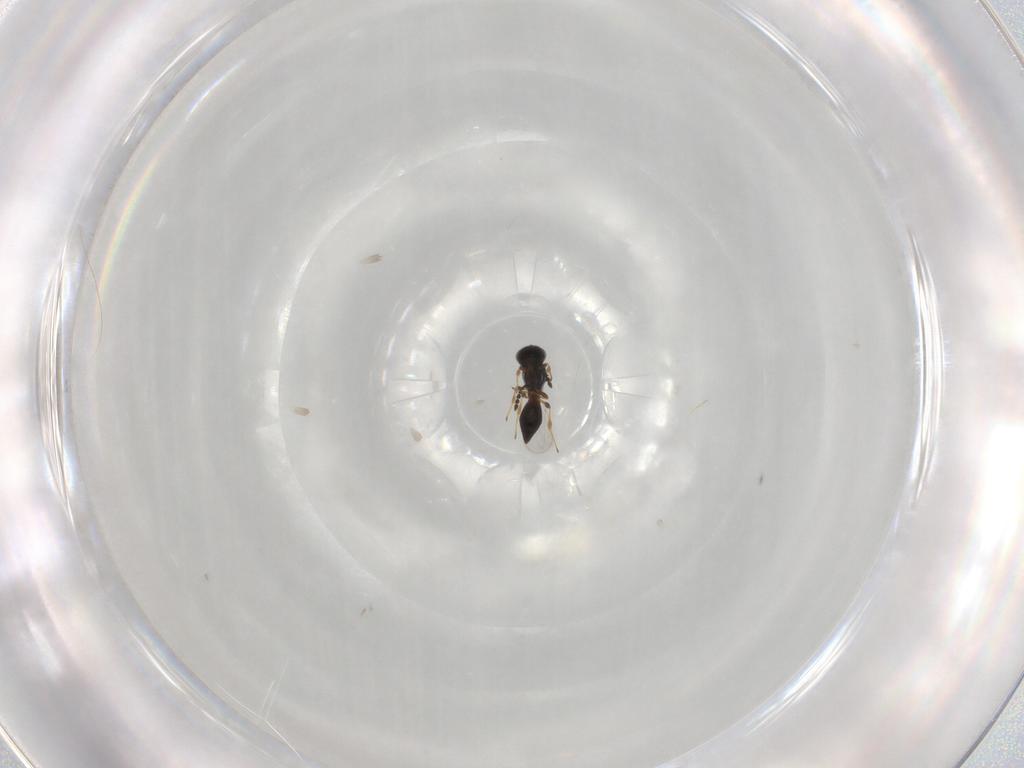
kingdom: Animalia
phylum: Arthropoda
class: Insecta
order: Hymenoptera
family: Platygastridae
